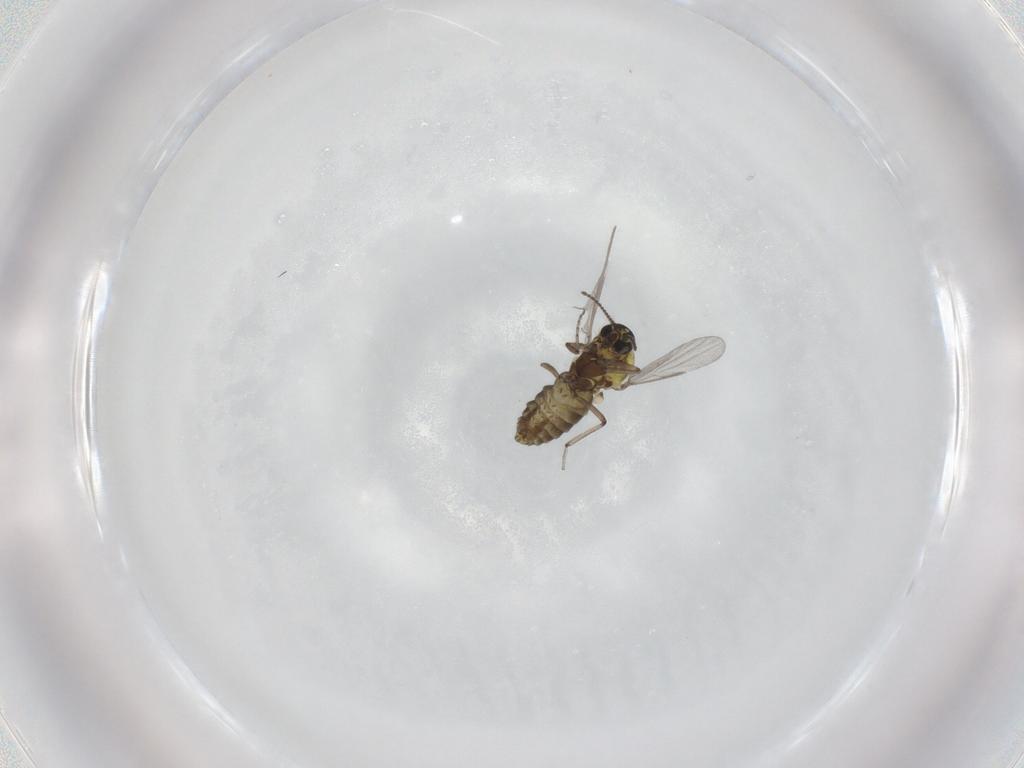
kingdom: Animalia
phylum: Arthropoda
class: Insecta
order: Diptera
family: Ceratopogonidae
